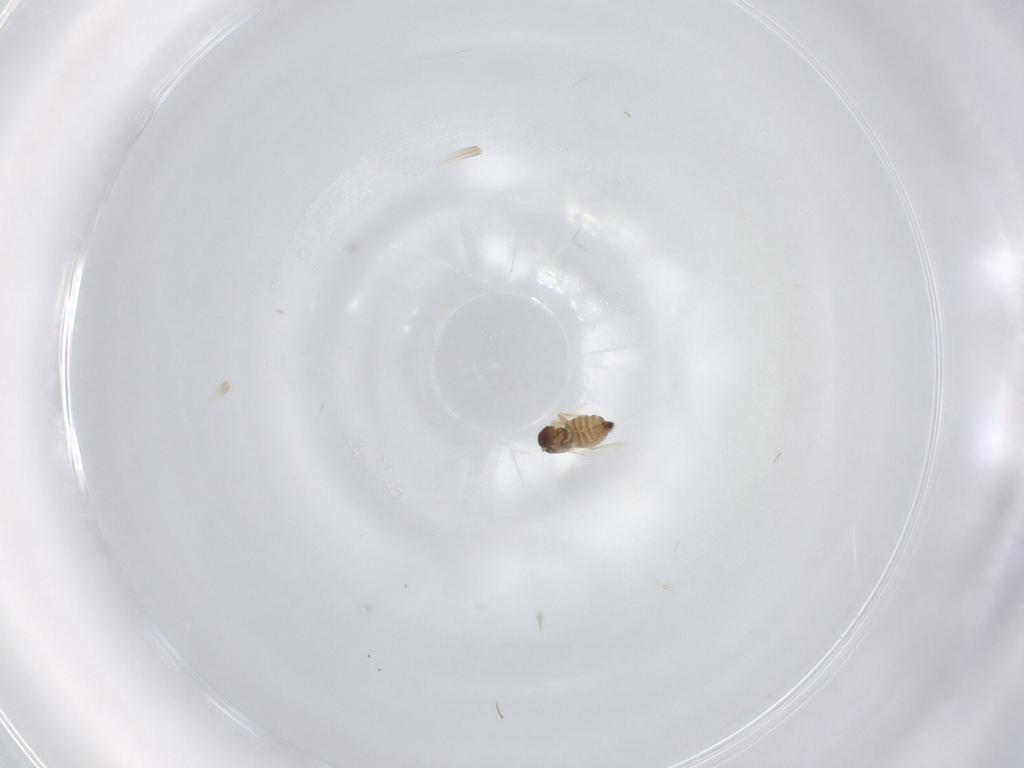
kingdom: Animalia
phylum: Arthropoda
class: Insecta
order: Diptera
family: Cecidomyiidae
